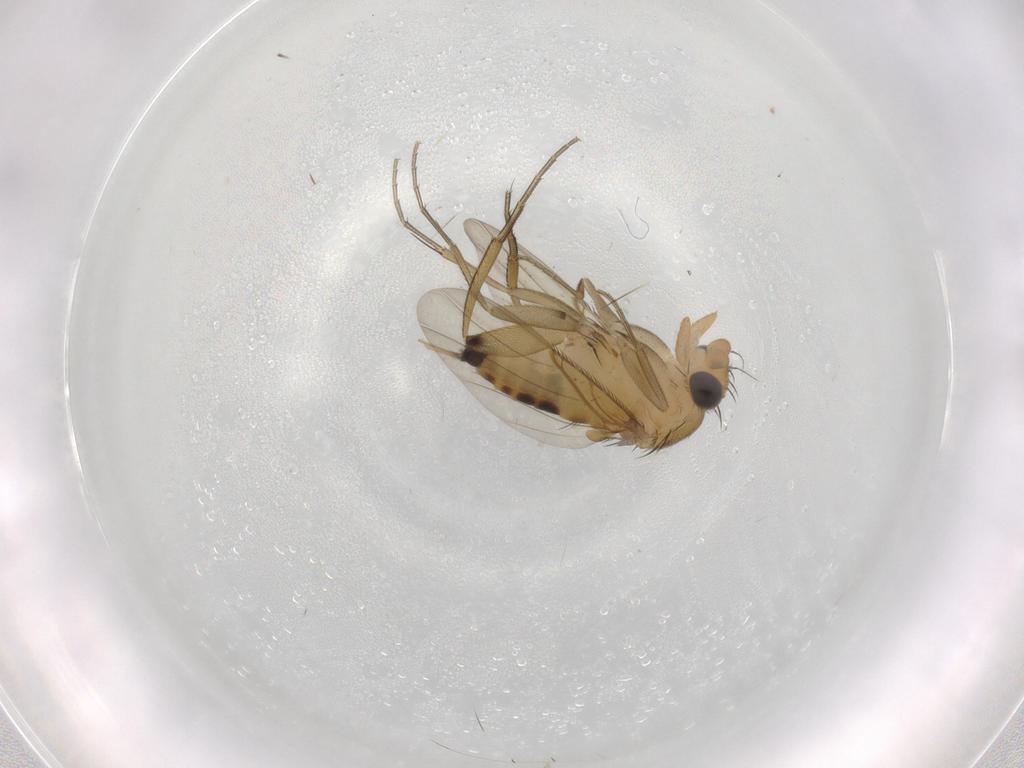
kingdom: Animalia
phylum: Arthropoda
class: Insecta
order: Diptera
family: Phoridae
